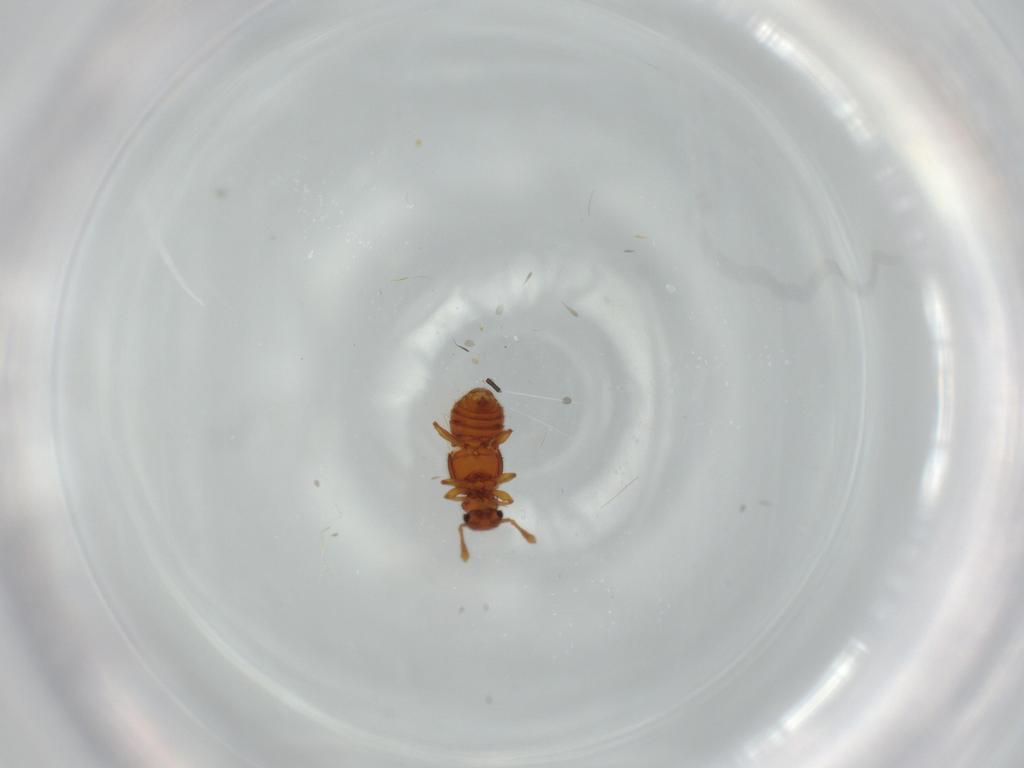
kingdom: Animalia
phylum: Arthropoda
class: Insecta
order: Coleoptera
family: Staphylinidae
